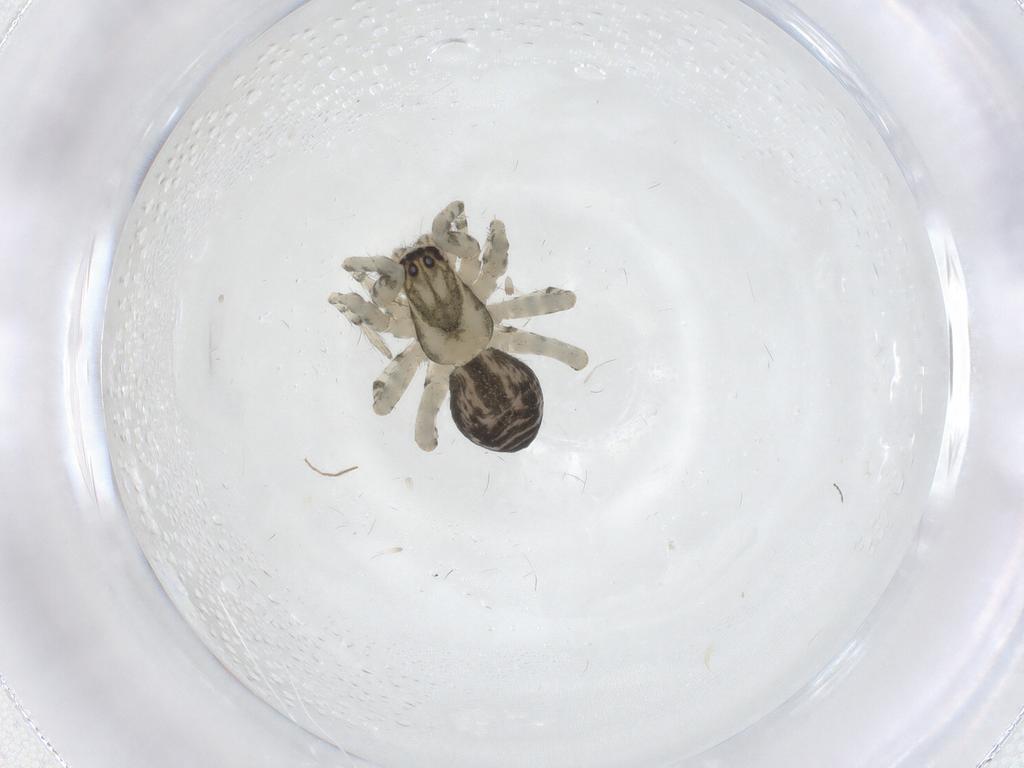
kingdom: Animalia
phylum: Arthropoda
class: Arachnida
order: Araneae
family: Anyphaenidae
